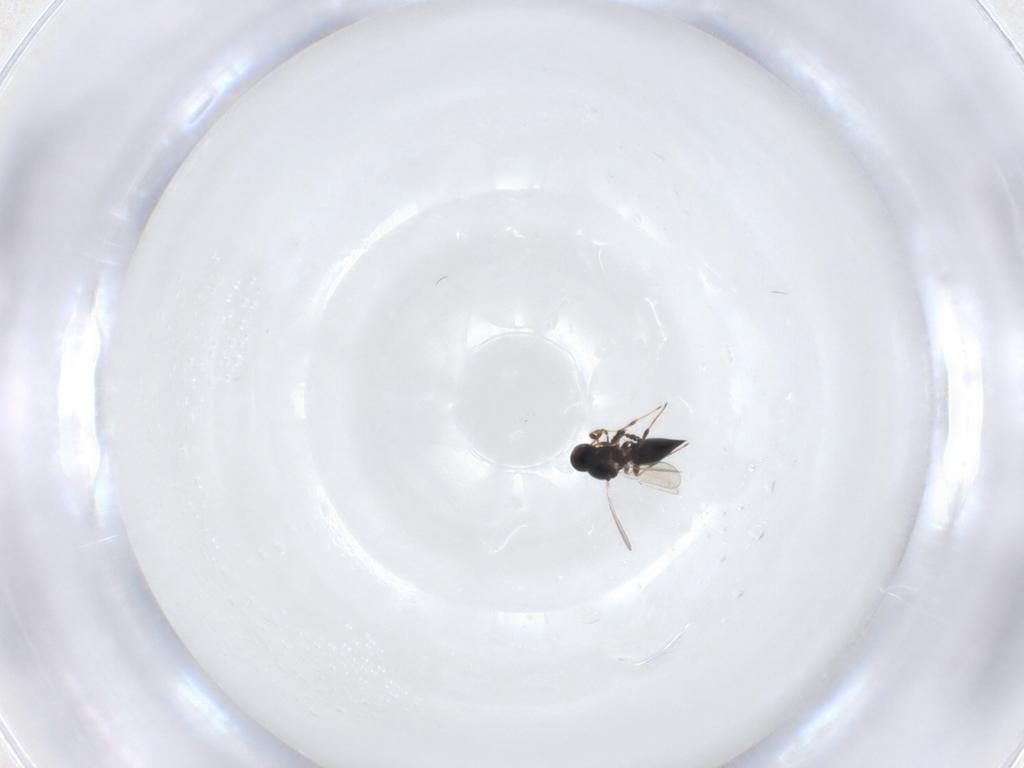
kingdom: Animalia
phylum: Arthropoda
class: Insecta
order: Hymenoptera
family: Platygastridae
